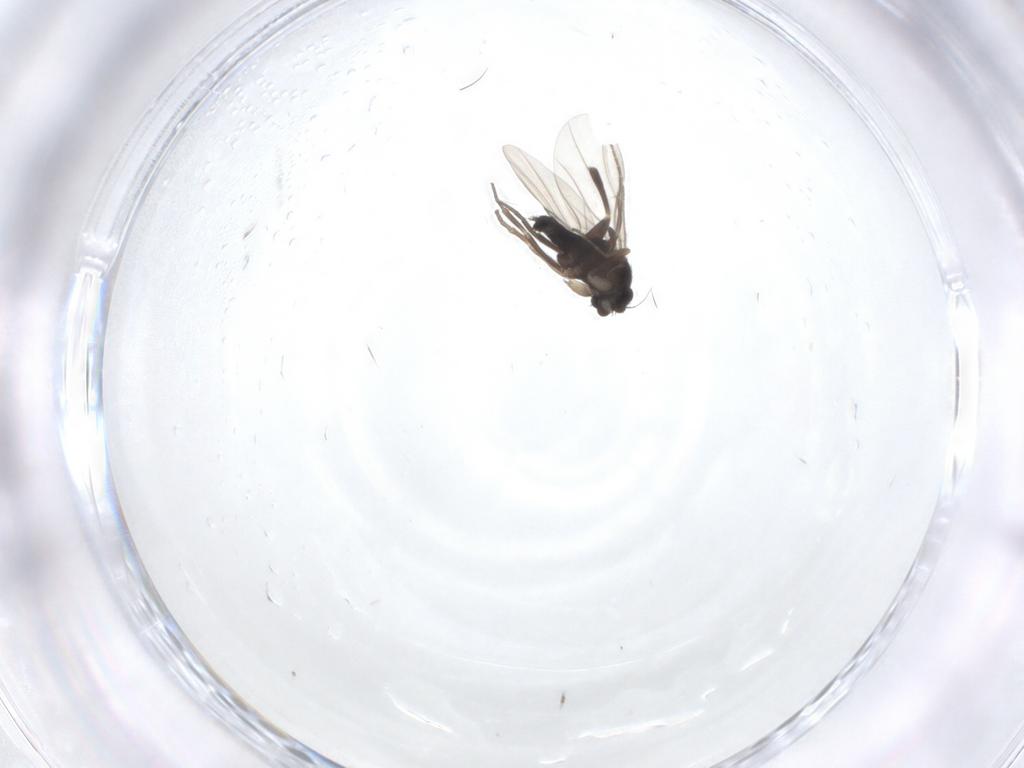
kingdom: Animalia
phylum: Arthropoda
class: Insecta
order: Diptera
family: Phoridae
